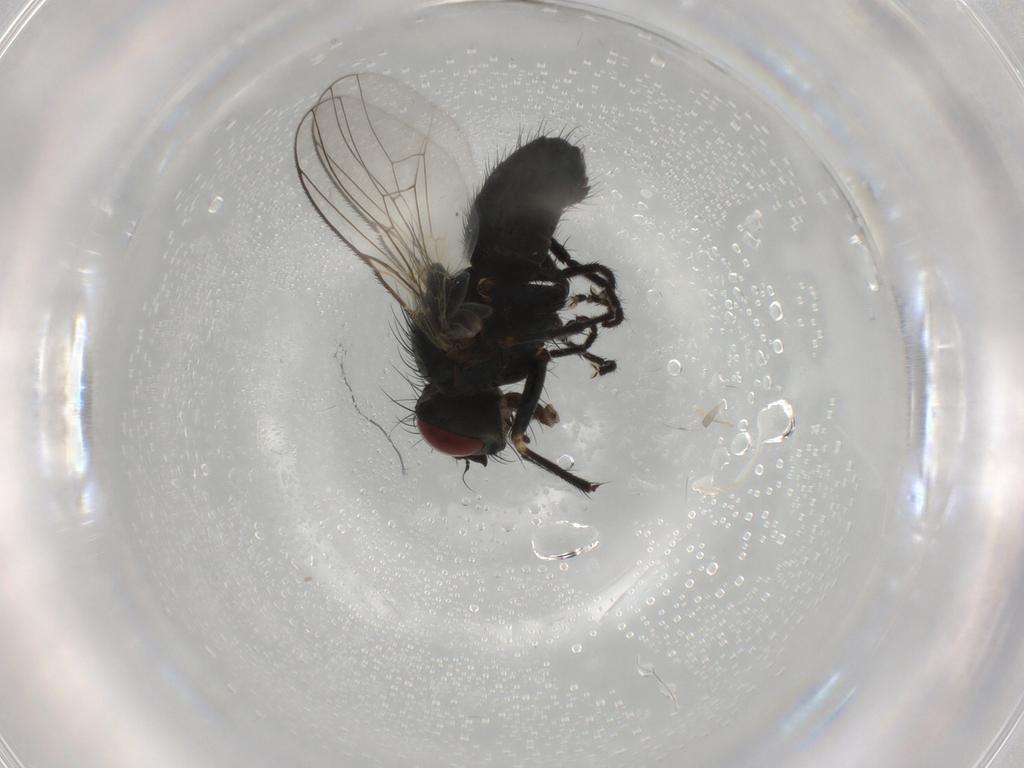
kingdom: Animalia
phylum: Arthropoda
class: Insecta
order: Diptera
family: Muscidae
